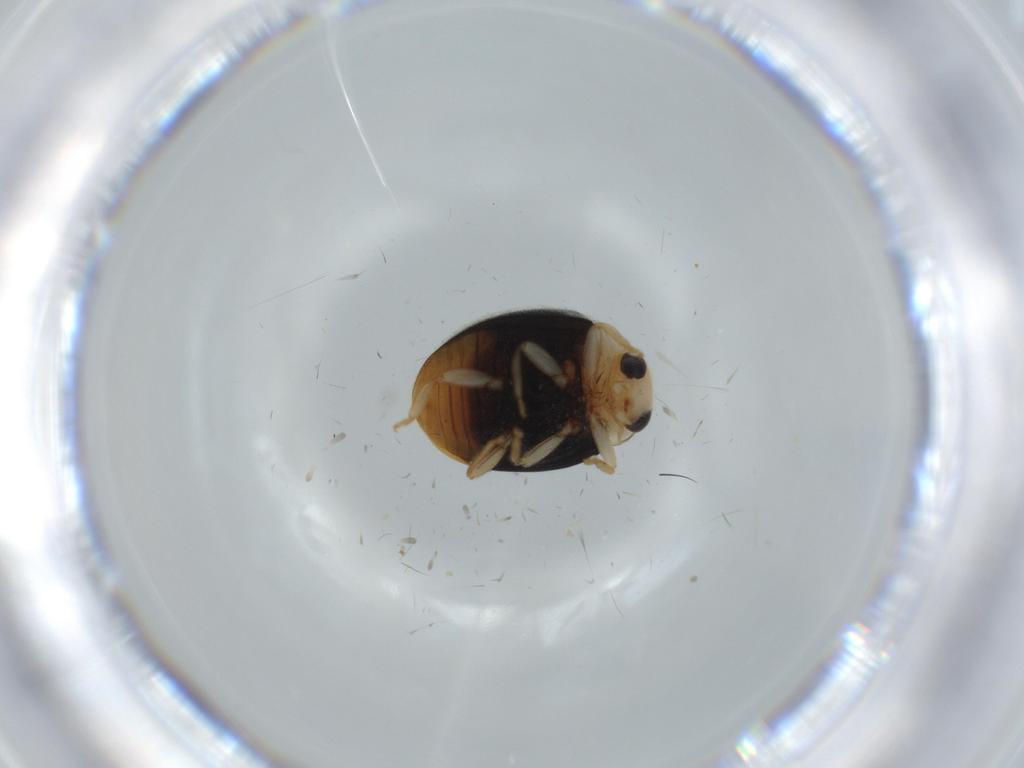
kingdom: Animalia
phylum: Arthropoda
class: Insecta
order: Coleoptera
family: Coccinellidae
